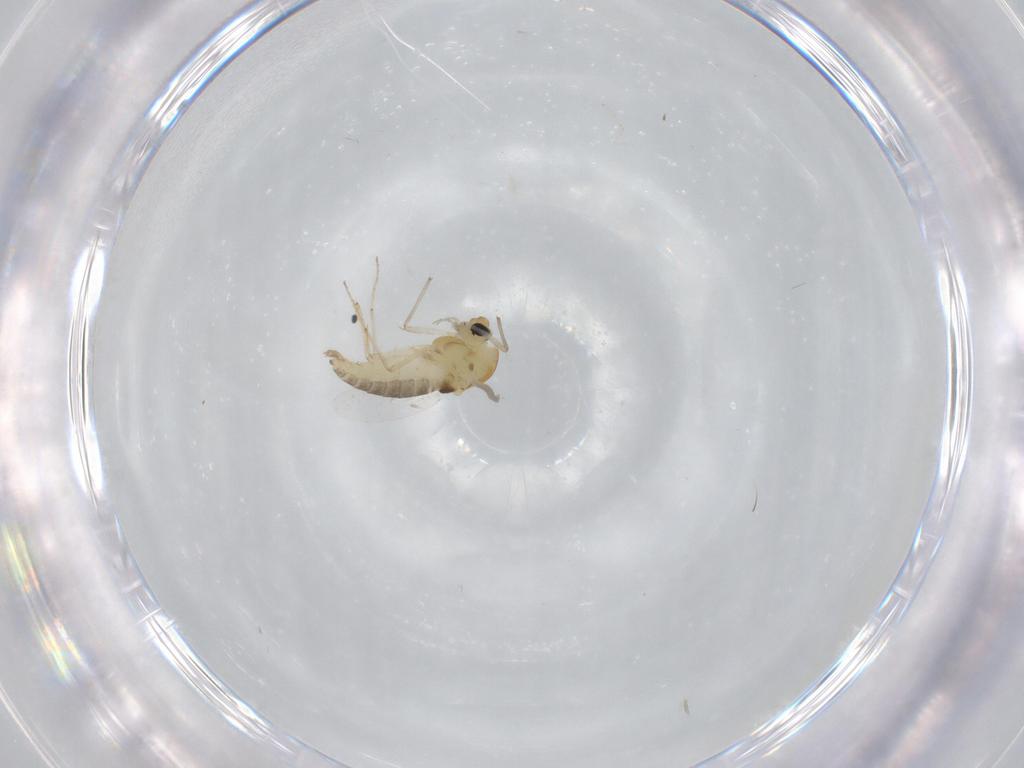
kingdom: Animalia
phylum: Arthropoda
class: Insecta
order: Diptera
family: Chironomidae
